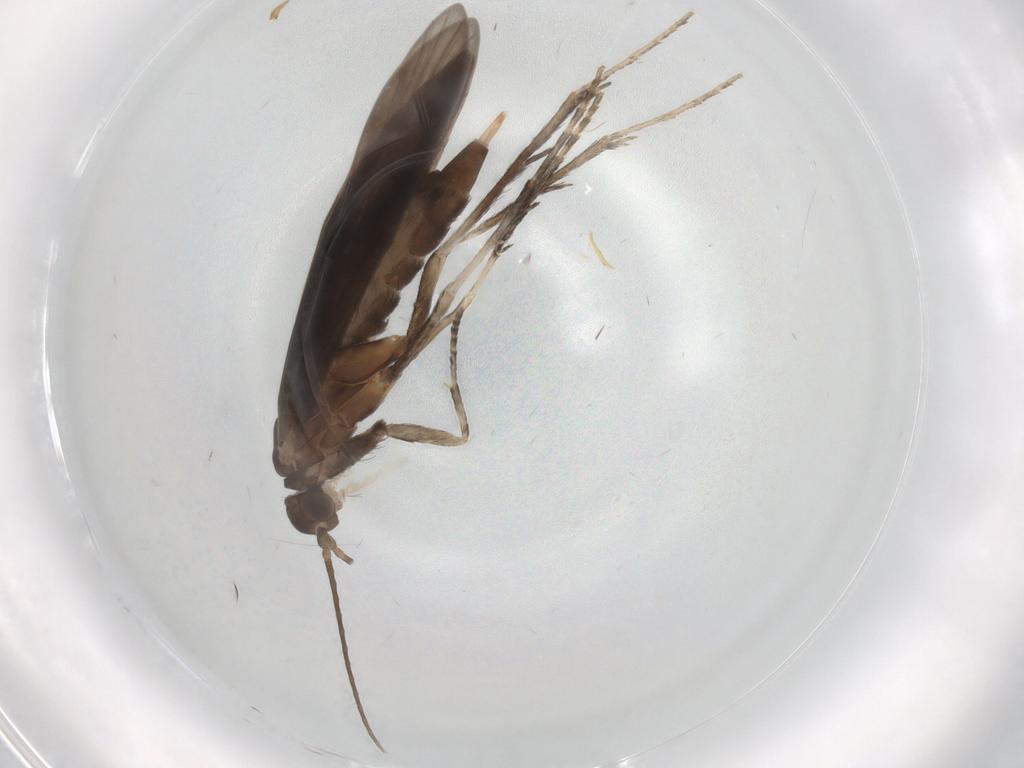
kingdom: Animalia
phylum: Arthropoda
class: Insecta
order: Trichoptera
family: Xiphocentronidae
